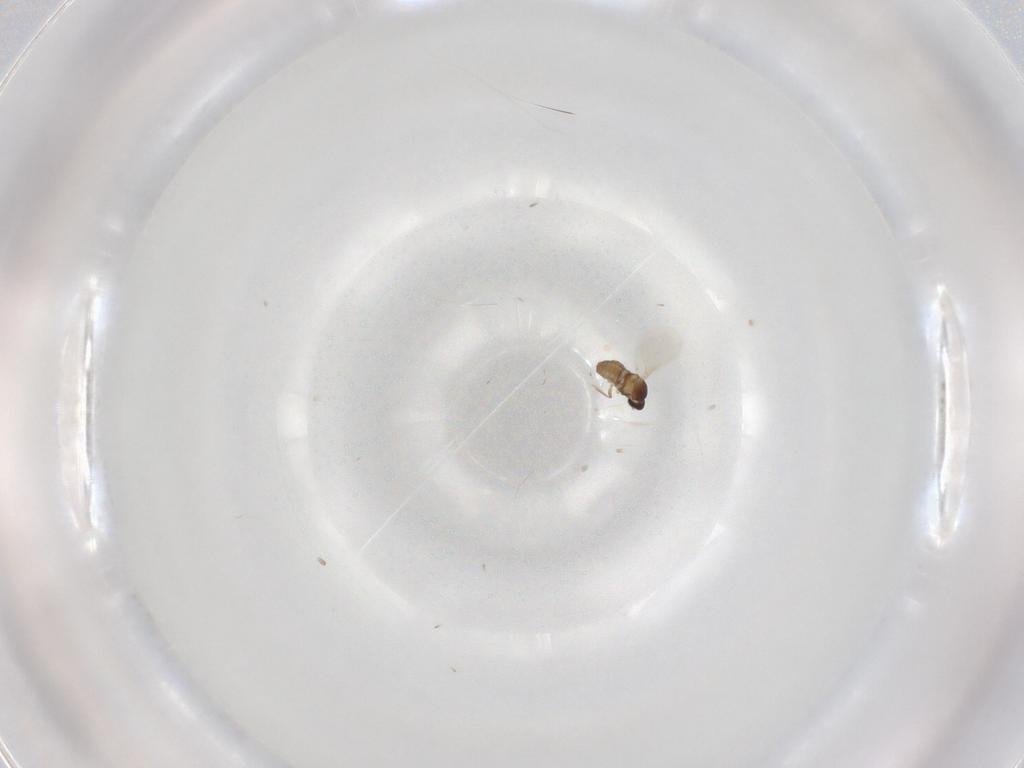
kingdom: Animalia
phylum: Arthropoda
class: Insecta
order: Diptera
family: Cecidomyiidae
